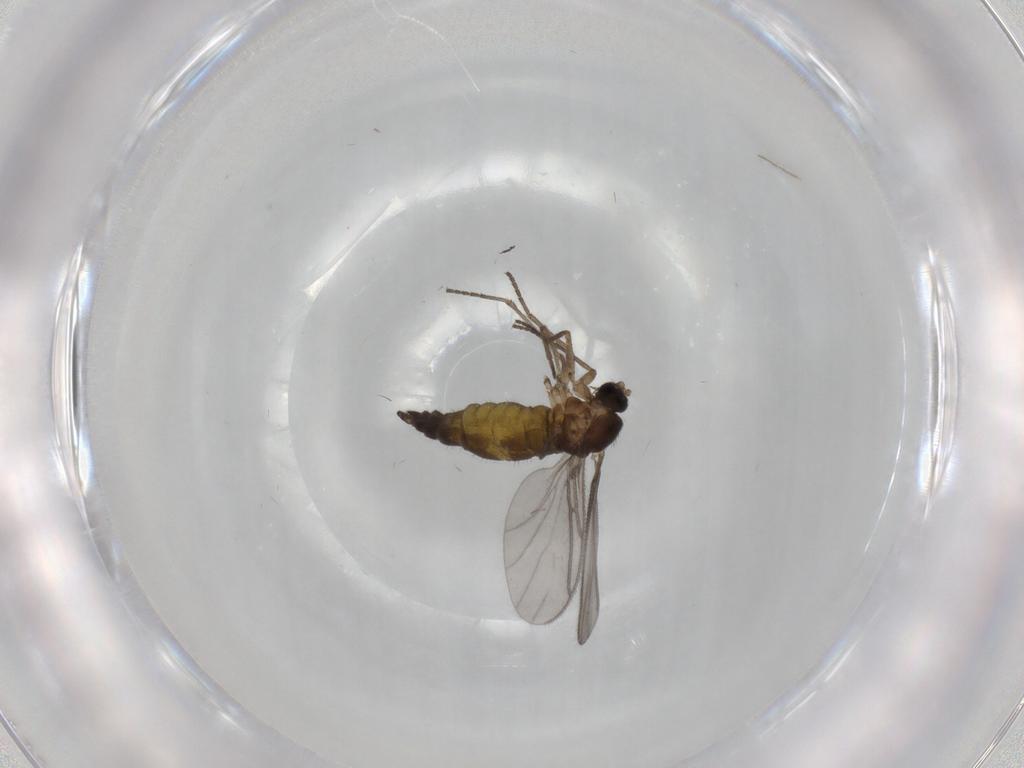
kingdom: Animalia
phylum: Arthropoda
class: Insecta
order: Diptera
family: Sciaridae
